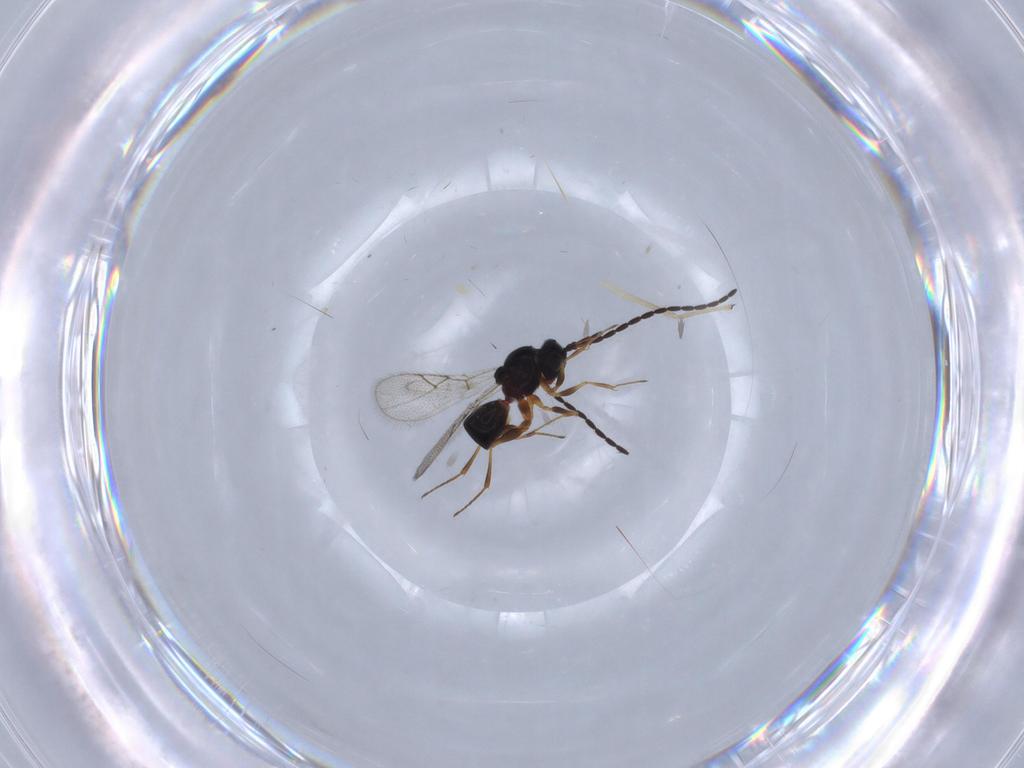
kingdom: Animalia
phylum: Arthropoda
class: Insecta
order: Hymenoptera
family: Figitidae
